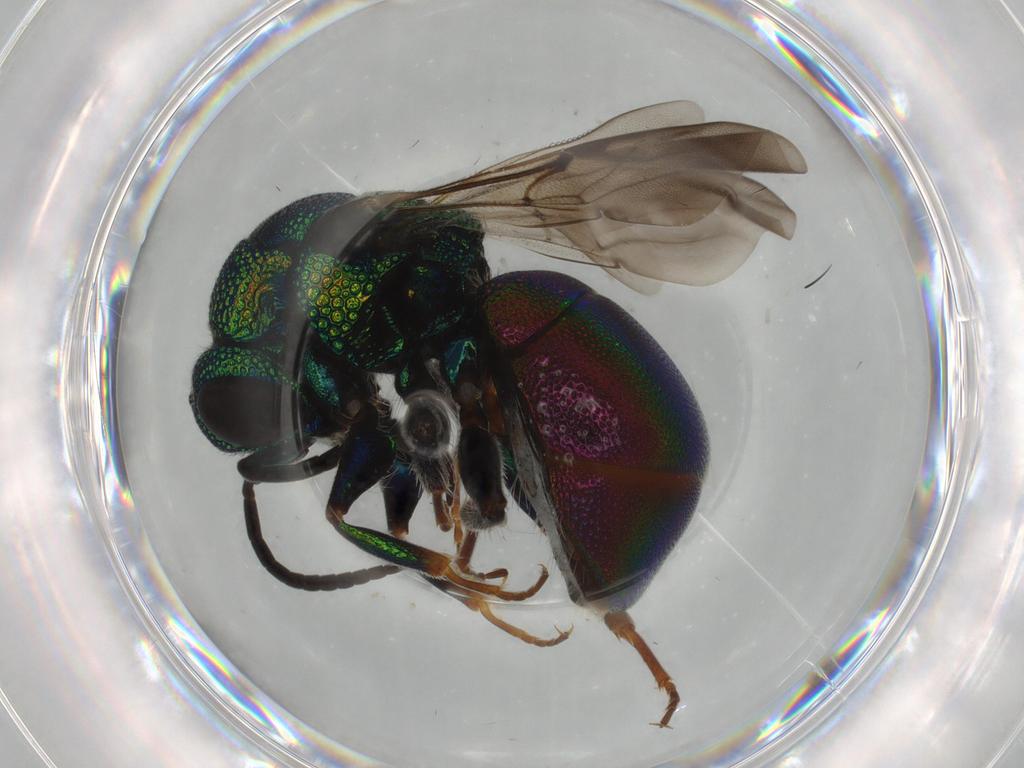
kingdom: Animalia
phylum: Arthropoda
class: Insecta
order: Hymenoptera
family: Chrysididae
